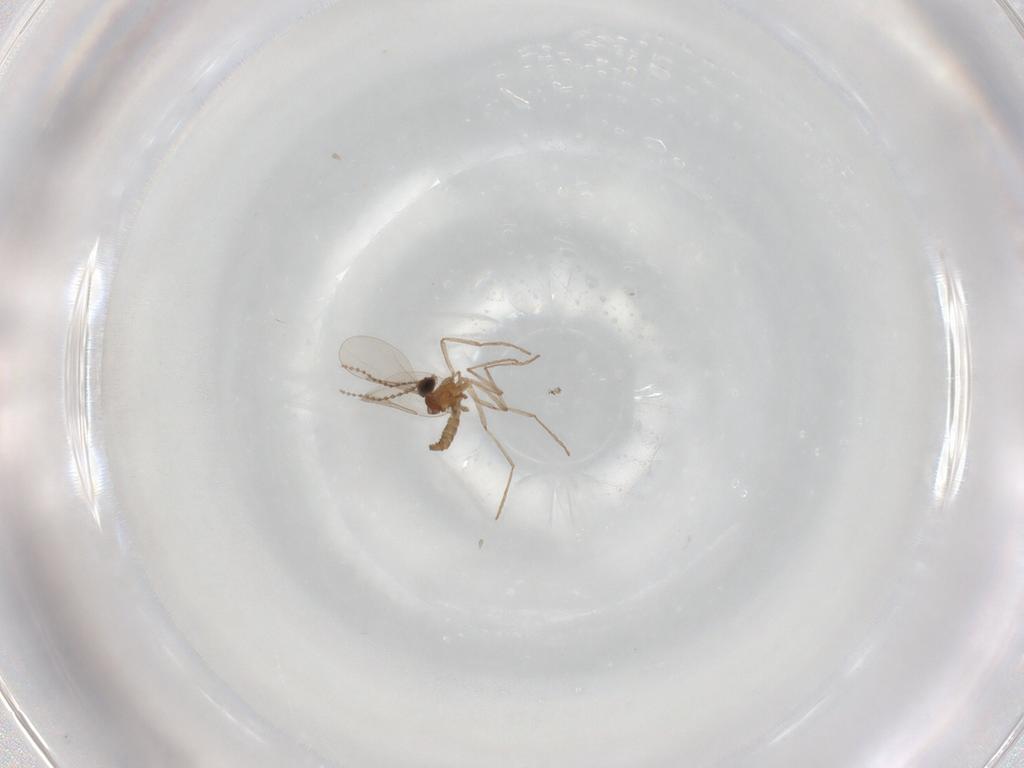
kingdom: Animalia
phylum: Arthropoda
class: Insecta
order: Diptera
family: Cecidomyiidae
